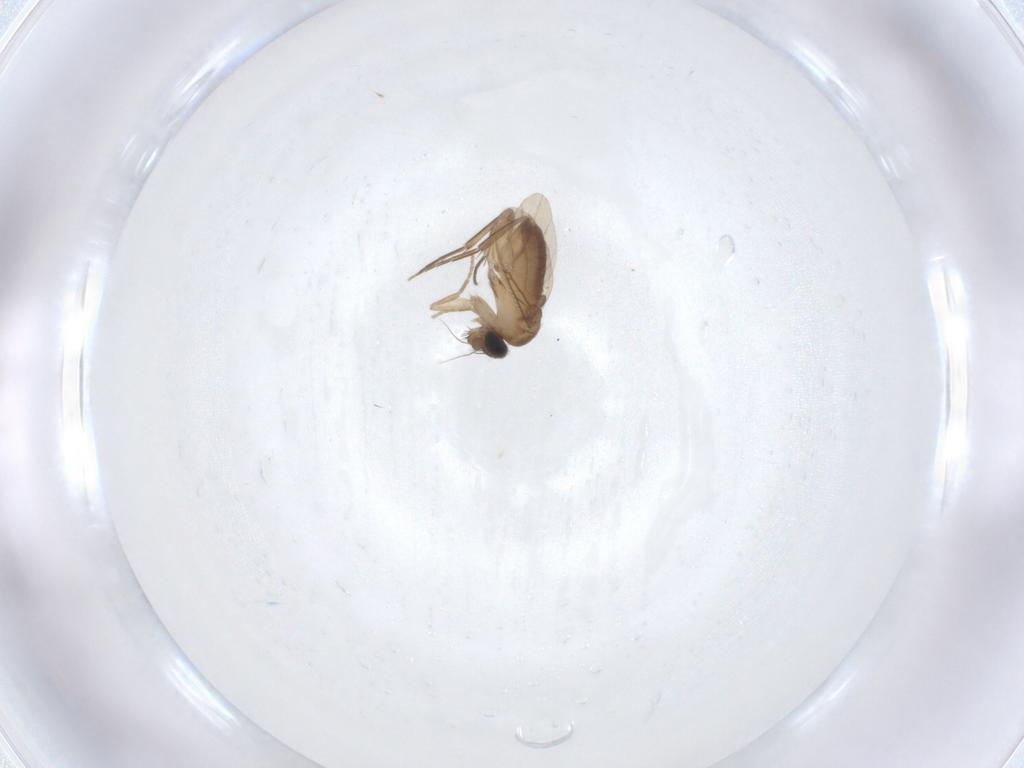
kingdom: Animalia
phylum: Arthropoda
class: Insecta
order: Diptera
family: Phoridae
